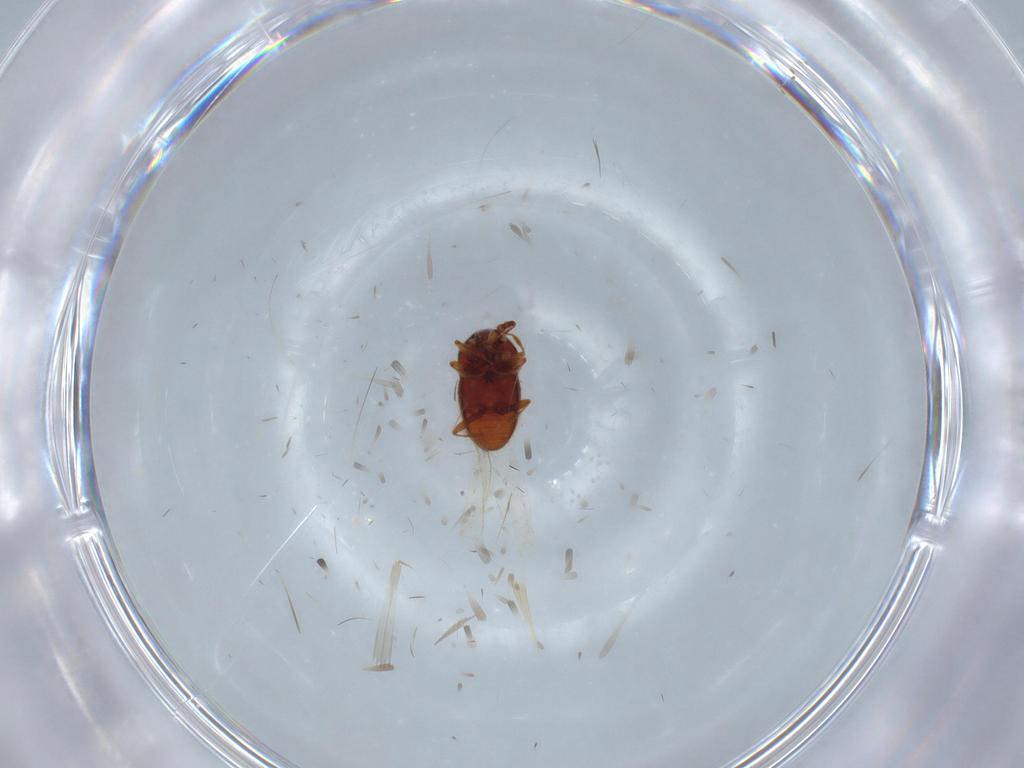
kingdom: Animalia
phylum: Arthropoda
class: Insecta
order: Coleoptera
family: Staphylinidae
